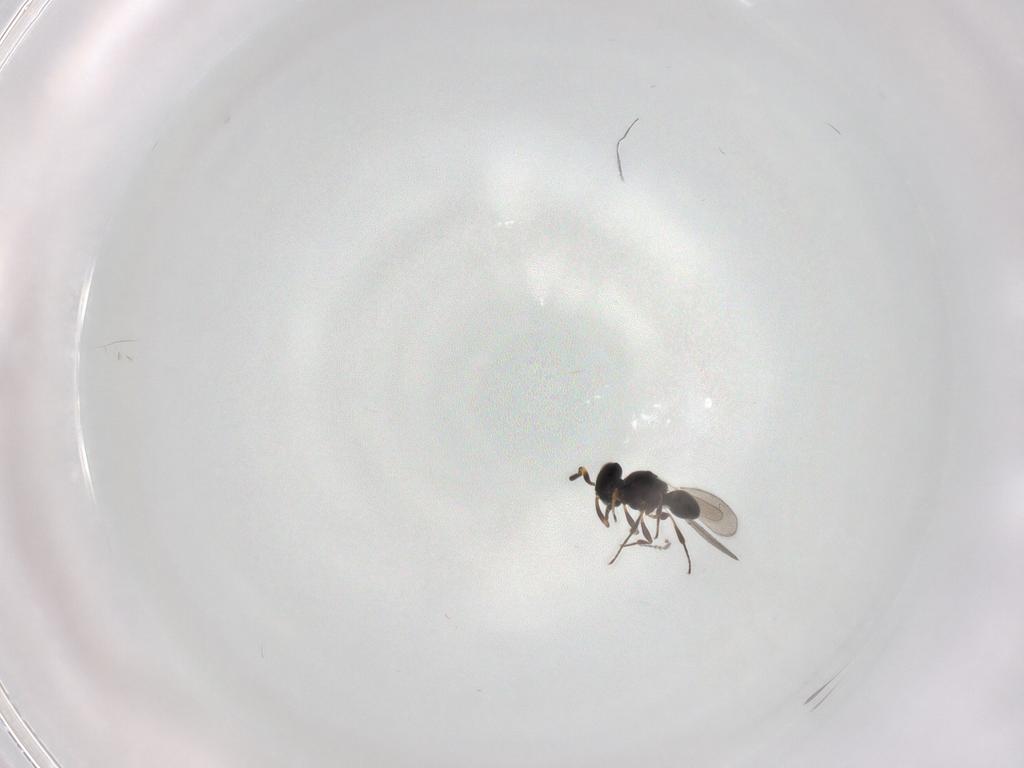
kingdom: Animalia
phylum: Arthropoda
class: Insecta
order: Hymenoptera
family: Platygastridae
